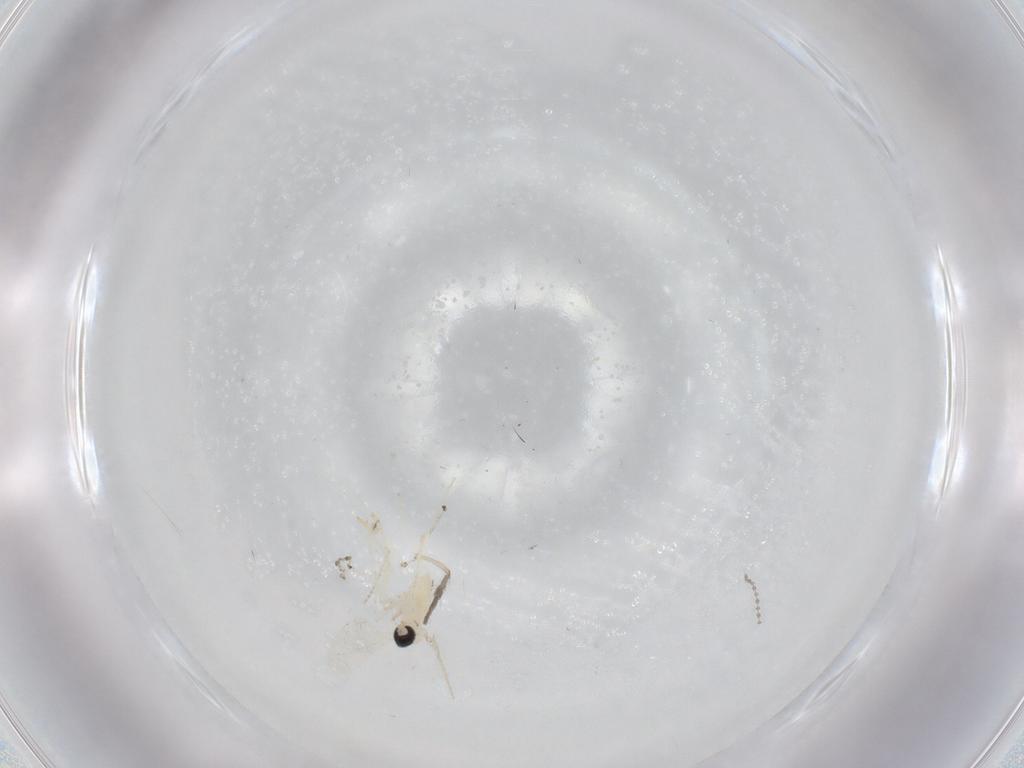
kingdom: Animalia
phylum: Arthropoda
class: Insecta
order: Diptera
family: Cecidomyiidae
